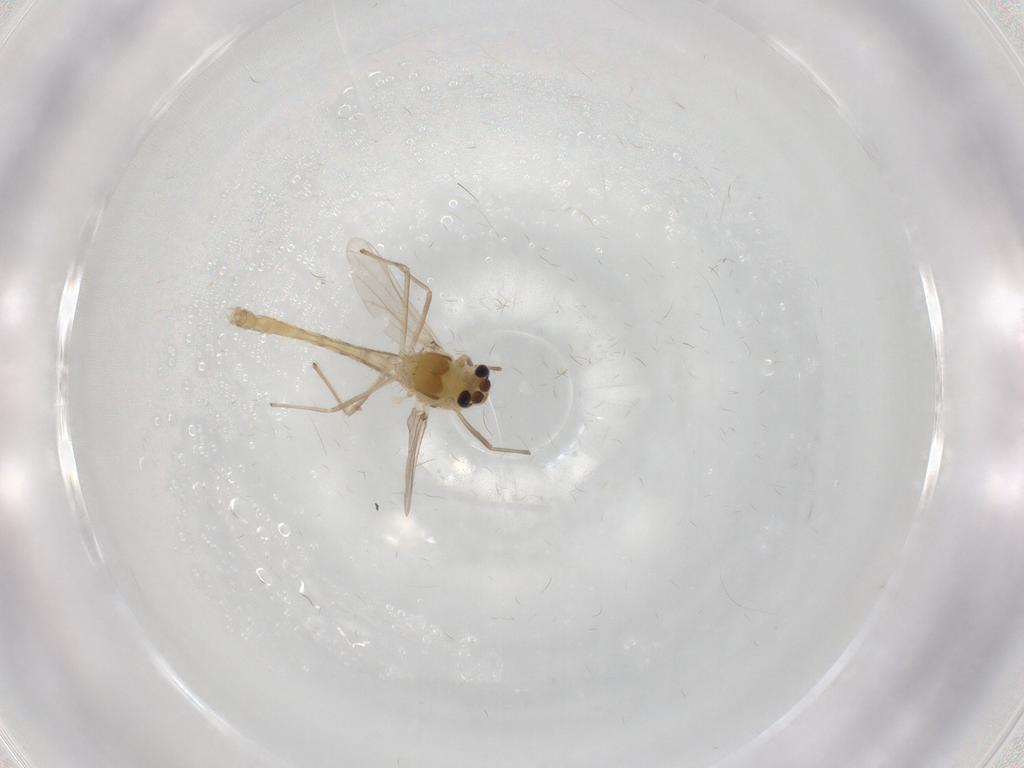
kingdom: Animalia
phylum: Arthropoda
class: Insecta
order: Diptera
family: Chironomidae
